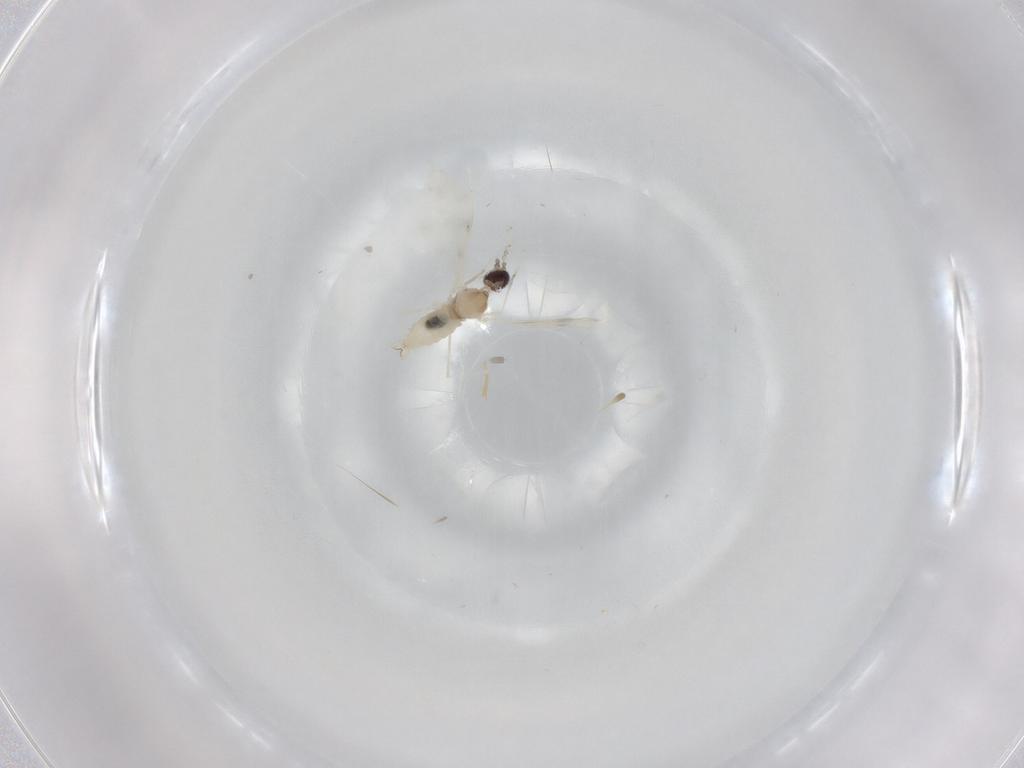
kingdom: Animalia
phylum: Arthropoda
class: Insecta
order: Diptera
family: Cecidomyiidae
